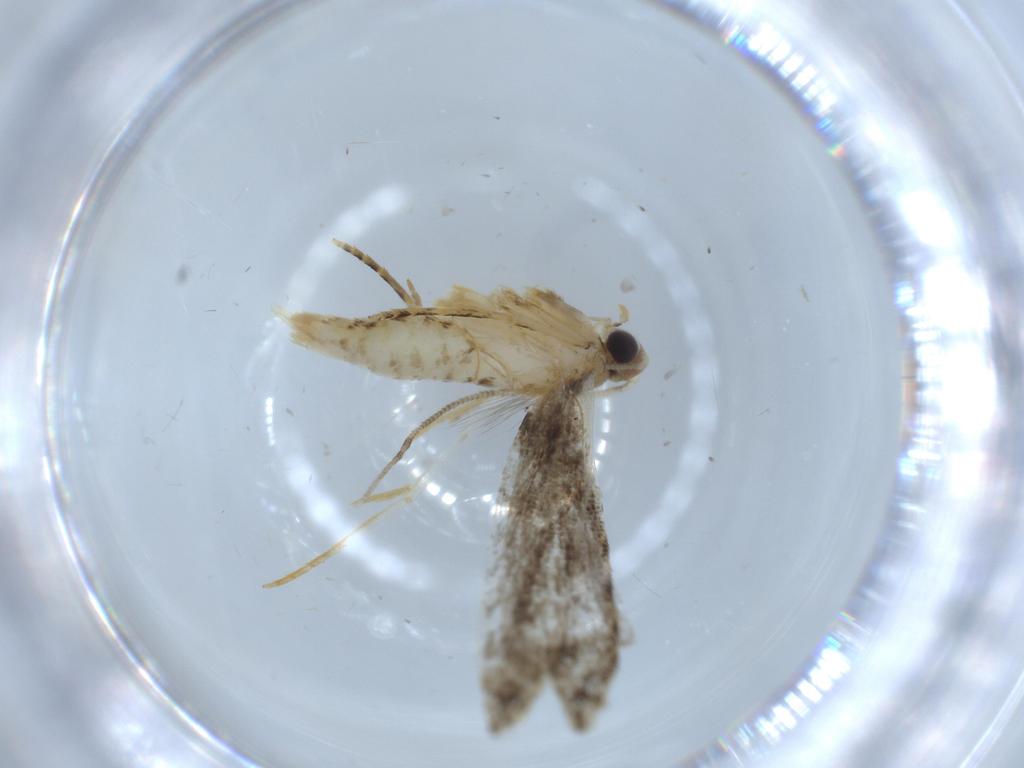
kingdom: Animalia
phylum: Arthropoda
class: Insecta
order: Lepidoptera
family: Tineidae
